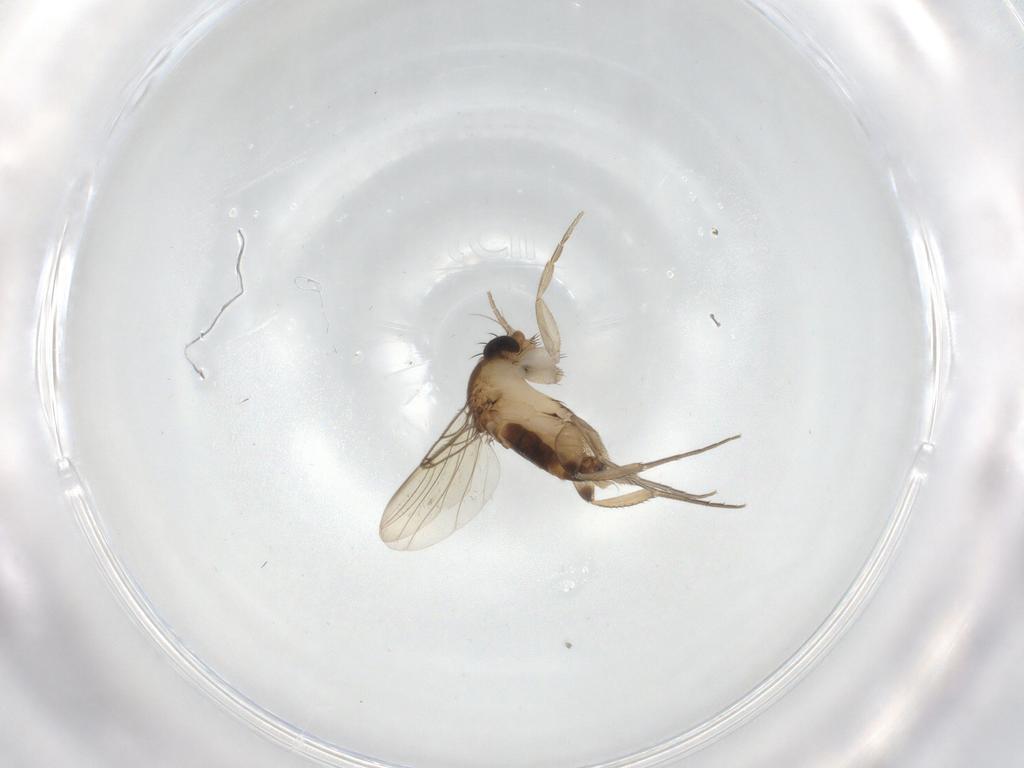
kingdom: Animalia
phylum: Arthropoda
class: Insecta
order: Diptera
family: Phoridae
